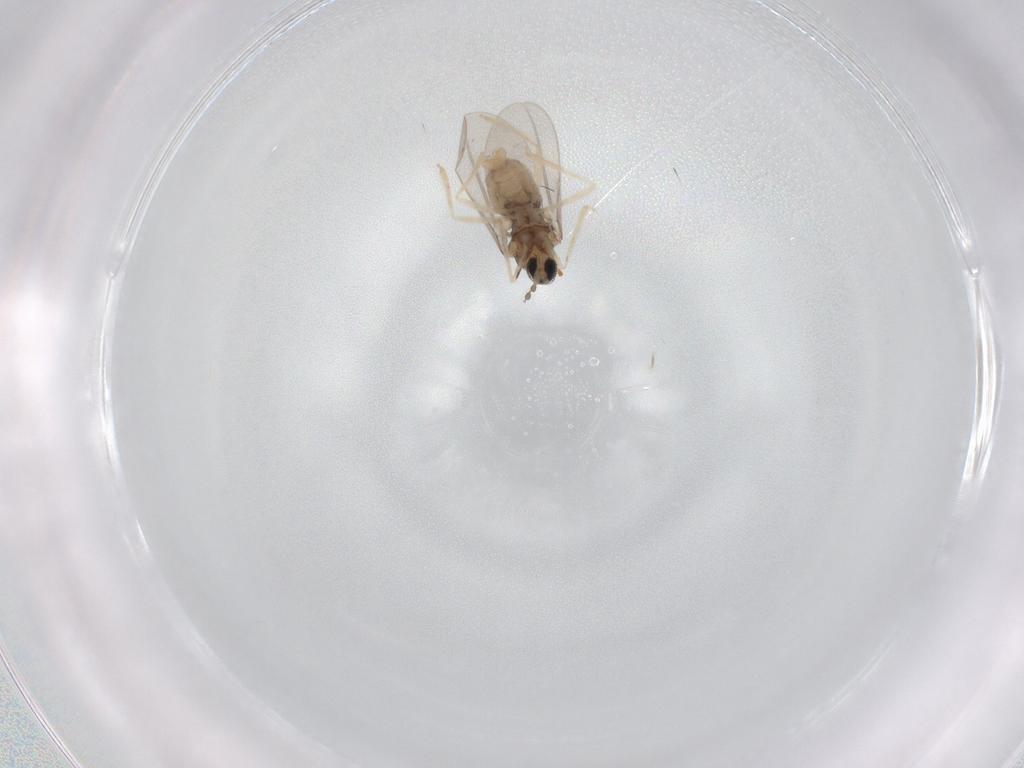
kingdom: Animalia
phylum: Arthropoda
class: Insecta
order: Diptera
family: Cecidomyiidae
